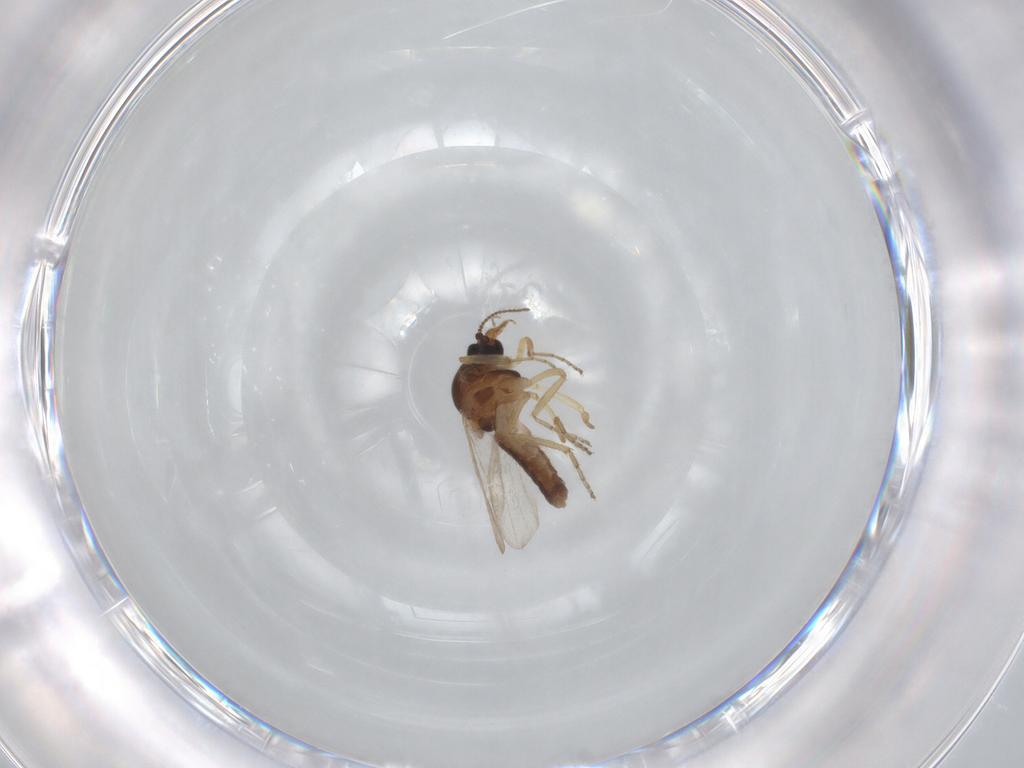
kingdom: Animalia
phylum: Arthropoda
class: Insecta
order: Diptera
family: Ceratopogonidae
